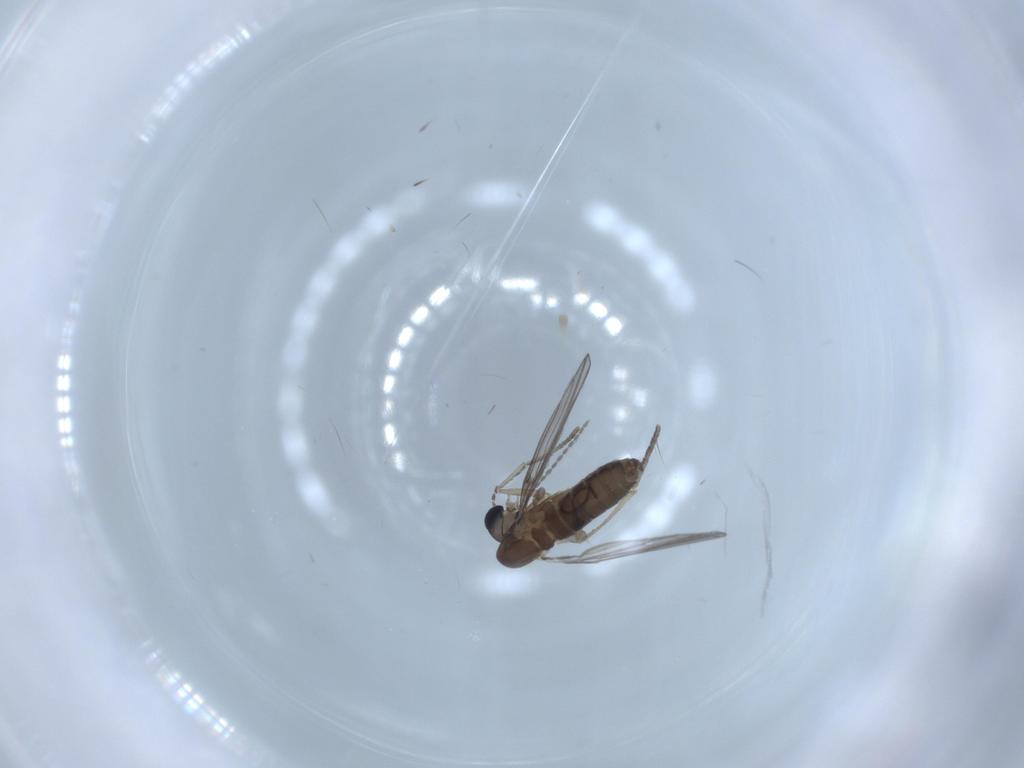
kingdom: Animalia
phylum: Arthropoda
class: Insecta
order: Diptera
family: Psychodidae
